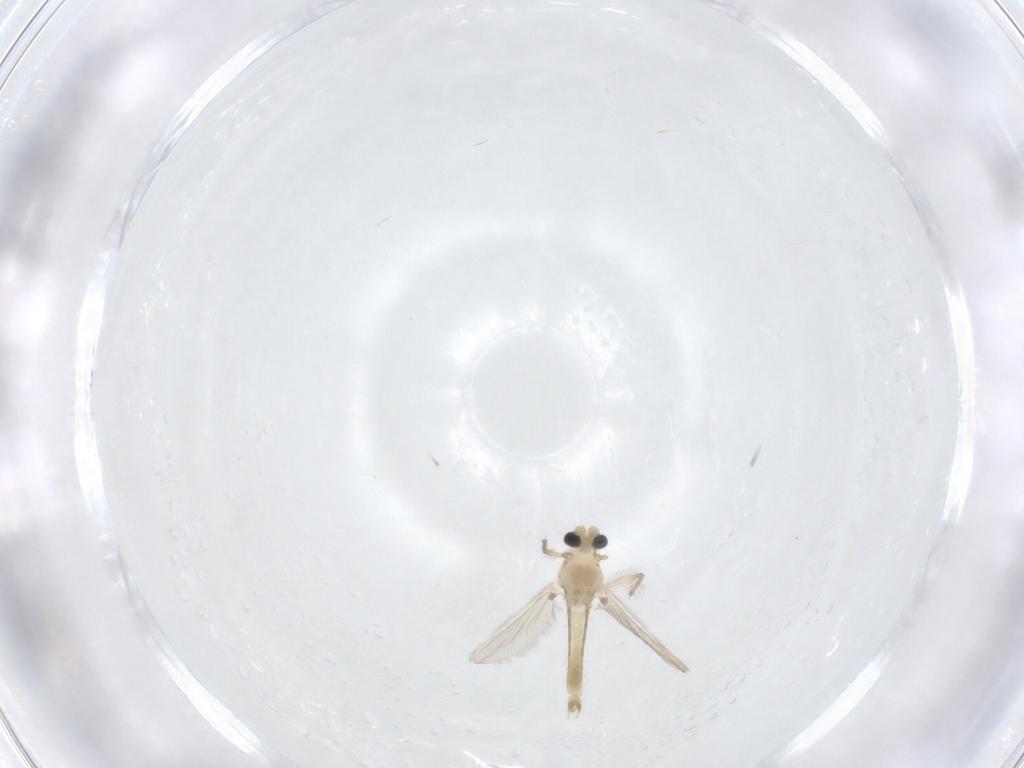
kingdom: Animalia
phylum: Arthropoda
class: Insecta
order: Diptera
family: Chironomidae
